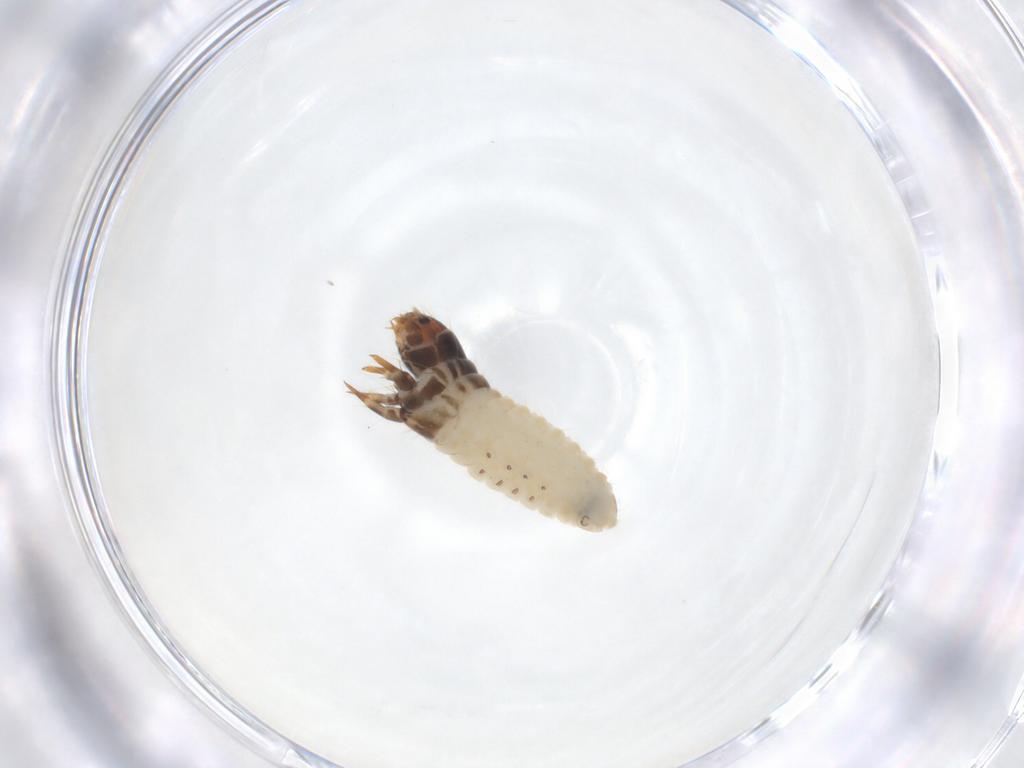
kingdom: Animalia
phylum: Arthropoda
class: Insecta
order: Lepidoptera
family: Psychidae
